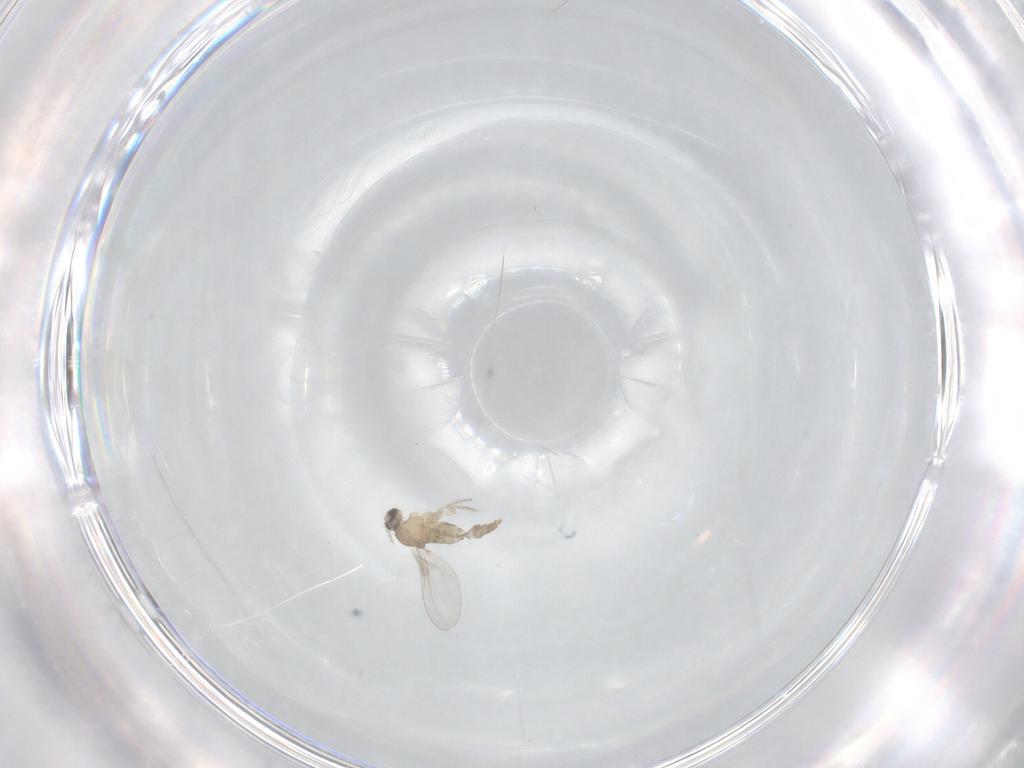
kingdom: Animalia
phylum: Arthropoda
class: Insecta
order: Diptera
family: Cecidomyiidae
